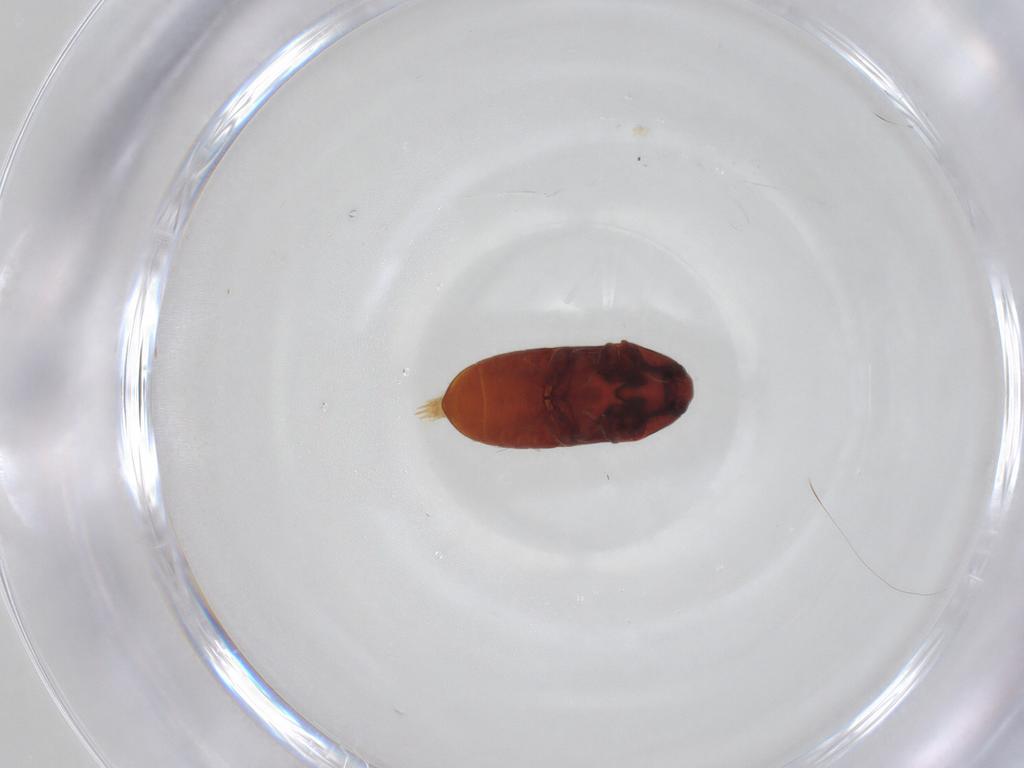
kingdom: Animalia
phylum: Arthropoda
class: Insecta
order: Coleoptera
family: Throscidae
